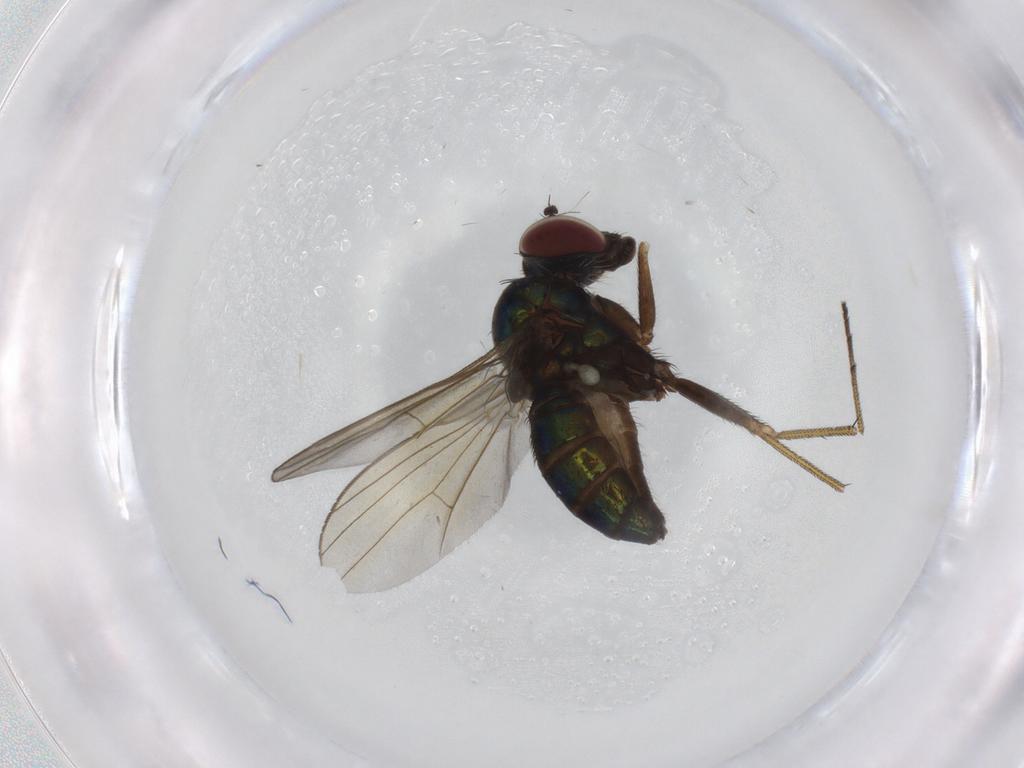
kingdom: Animalia
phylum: Arthropoda
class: Insecta
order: Diptera
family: Dolichopodidae
